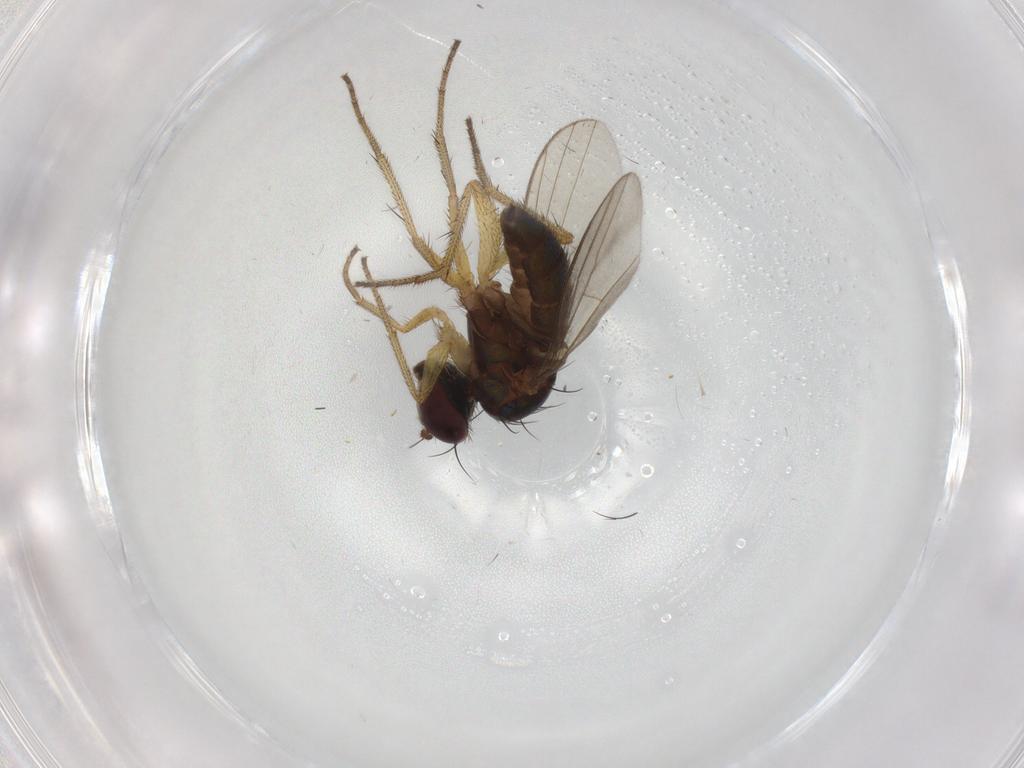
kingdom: Animalia
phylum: Arthropoda
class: Insecta
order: Diptera
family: Dolichopodidae
